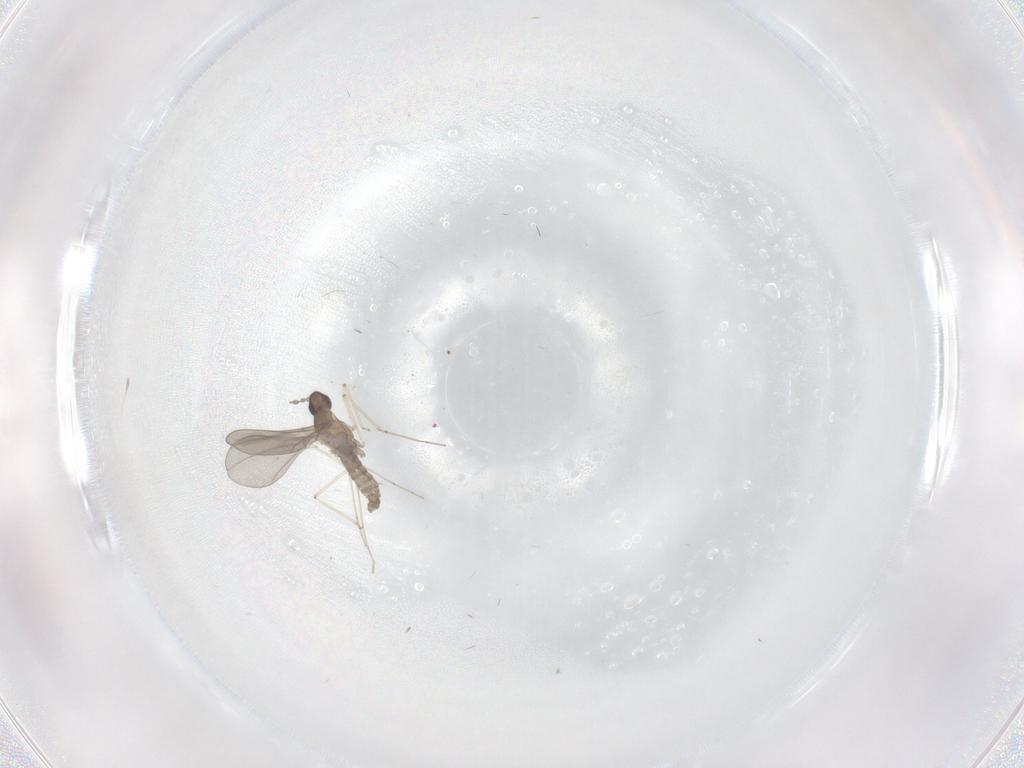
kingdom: Animalia
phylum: Arthropoda
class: Insecta
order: Diptera
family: Cecidomyiidae
